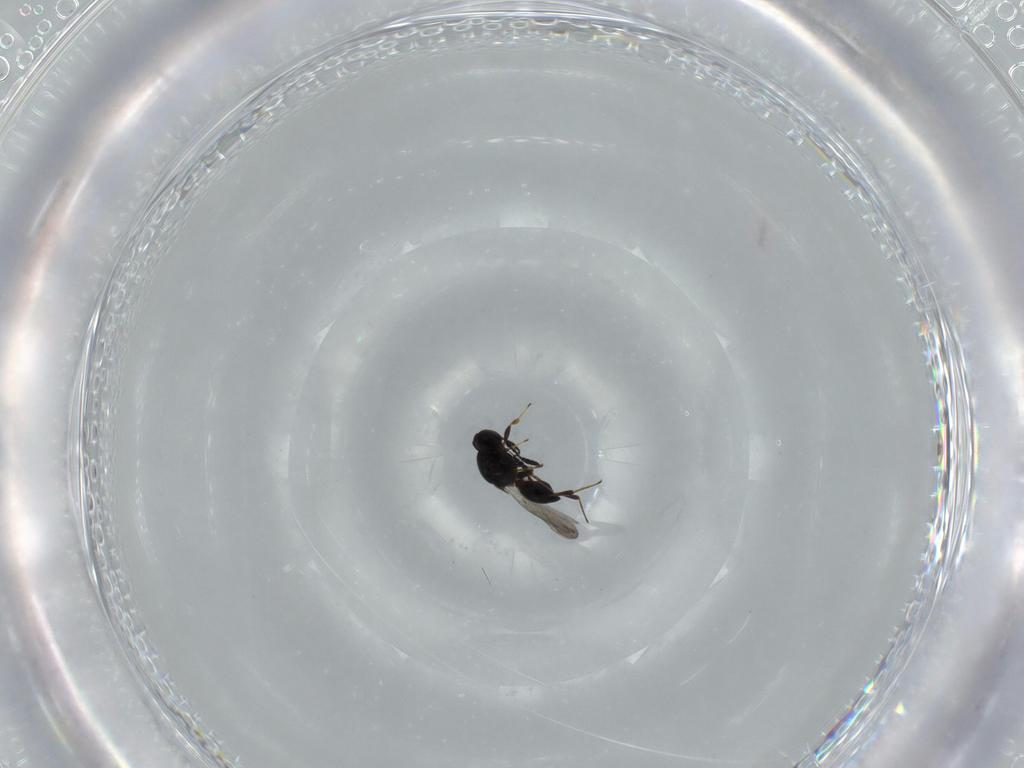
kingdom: Animalia
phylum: Arthropoda
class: Insecta
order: Hymenoptera
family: Platygastridae
